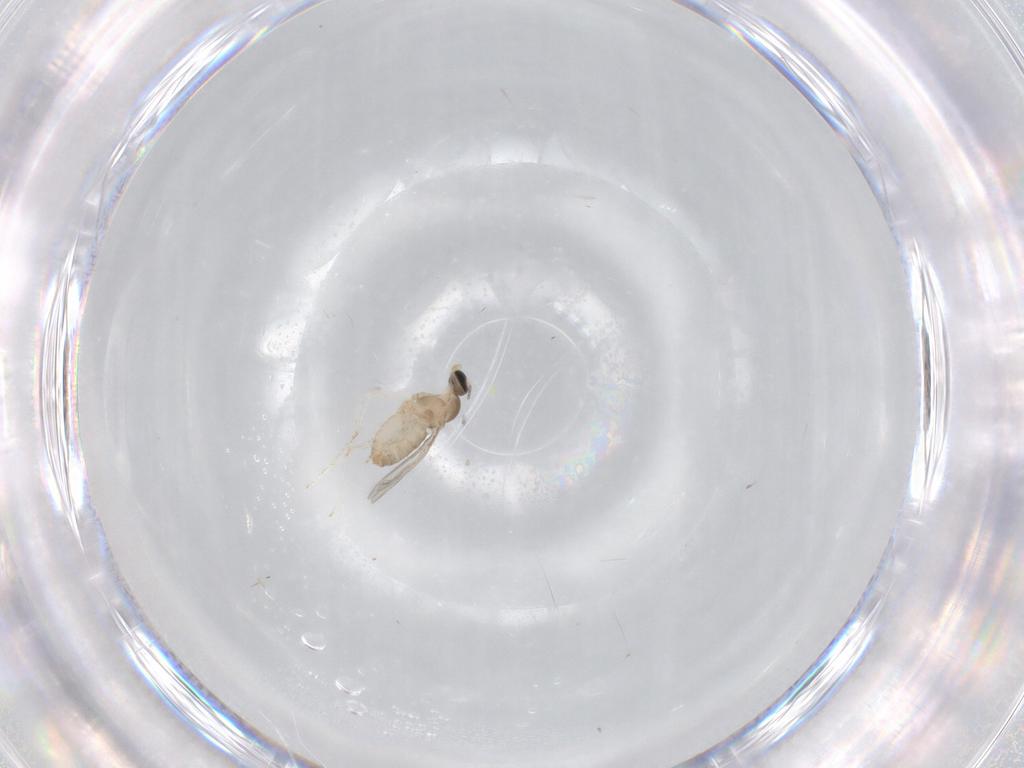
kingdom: Animalia
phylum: Arthropoda
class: Insecta
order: Diptera
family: Cecidomyiidae
